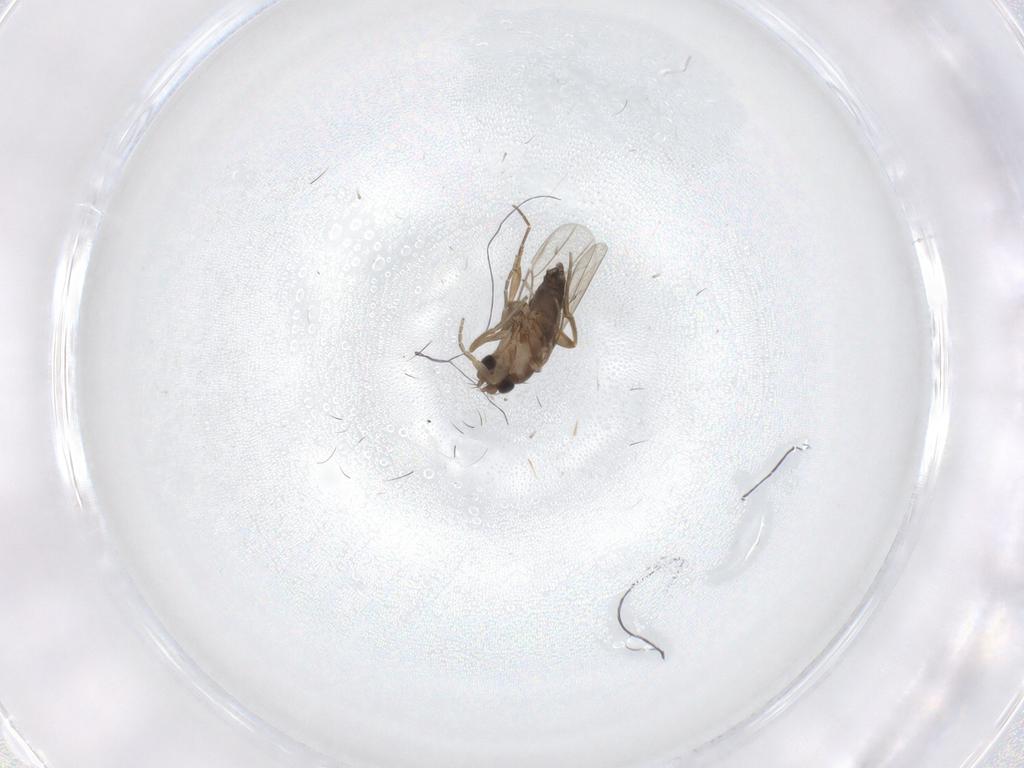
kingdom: Animalia
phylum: Arthropoda
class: Insecta
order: Diptera
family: Phoridae
